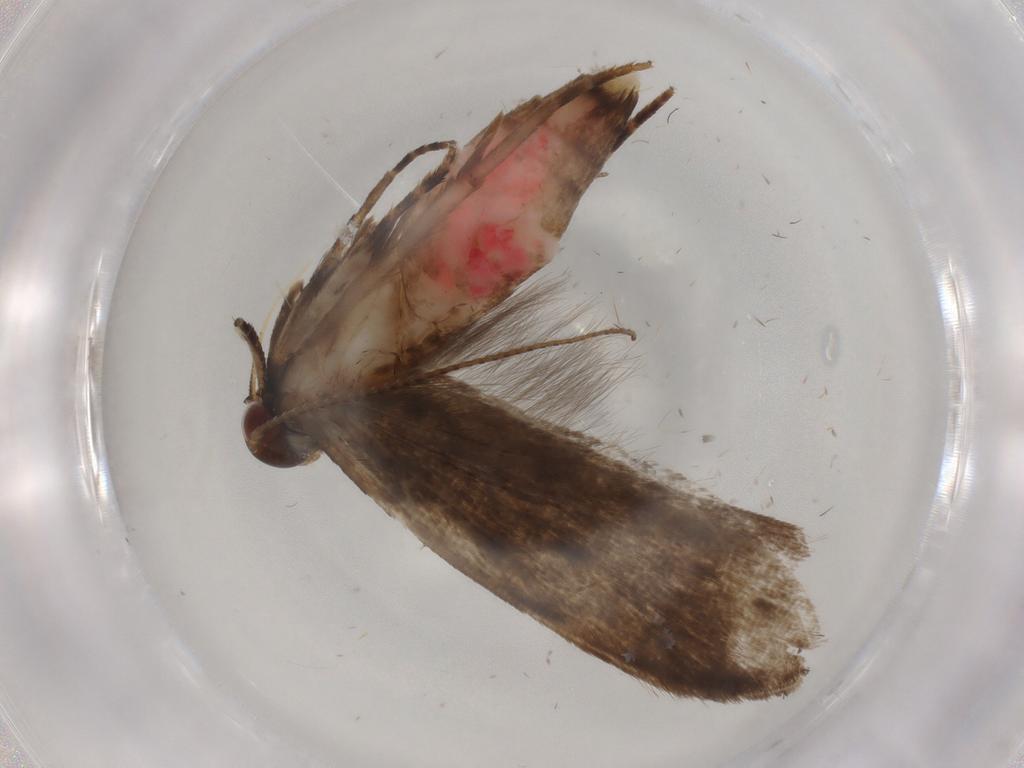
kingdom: Animalia
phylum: Arthropoda
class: Insecta
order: Lepidoptera
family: Gelechiidae
